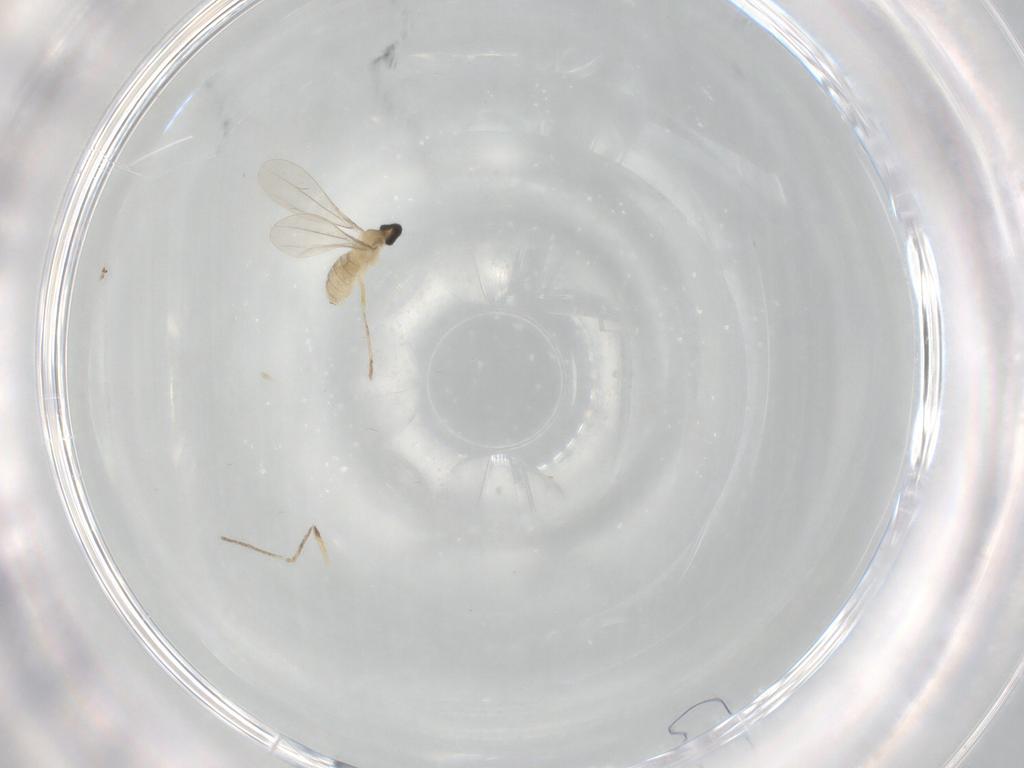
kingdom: Animalia
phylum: Arthropoda
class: Insecta
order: Diptera
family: Cecidomyiidae
